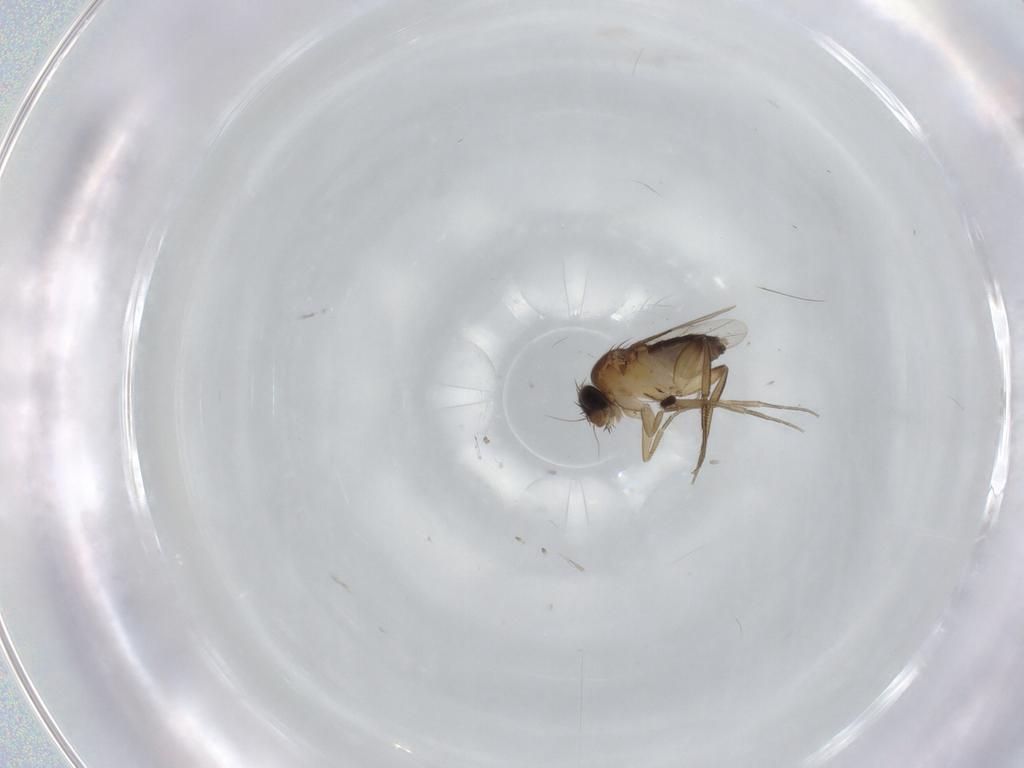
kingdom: Animalia
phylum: Arthropoda
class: Insecta
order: Diptera
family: Phoridae
